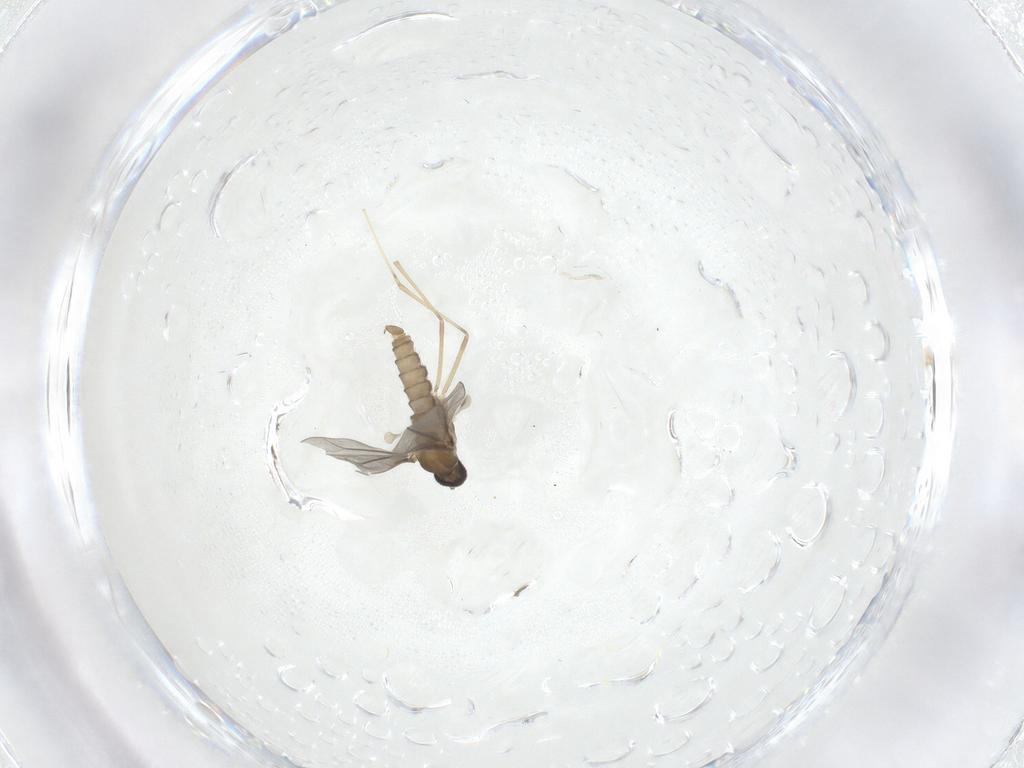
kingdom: Animalia
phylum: Arthropoda
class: Insecta
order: Diptera
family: Cecidomyiidae
